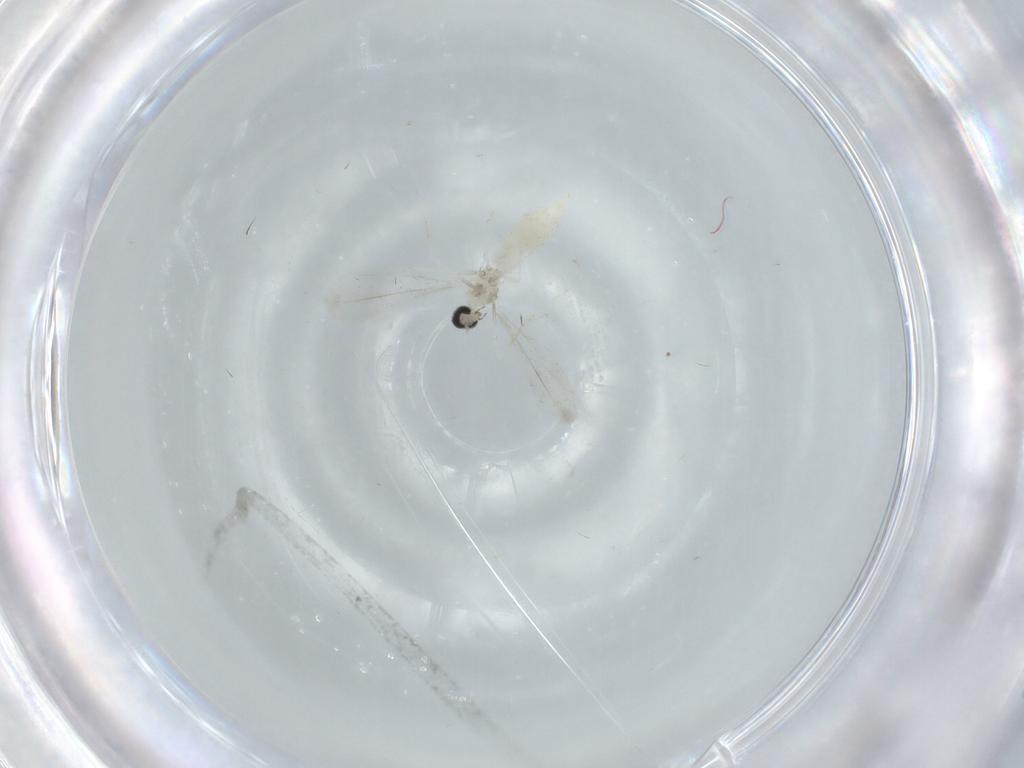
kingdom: Animalia
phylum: Arthropoda
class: Insecta
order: Diptera
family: Cecidomyiidae
